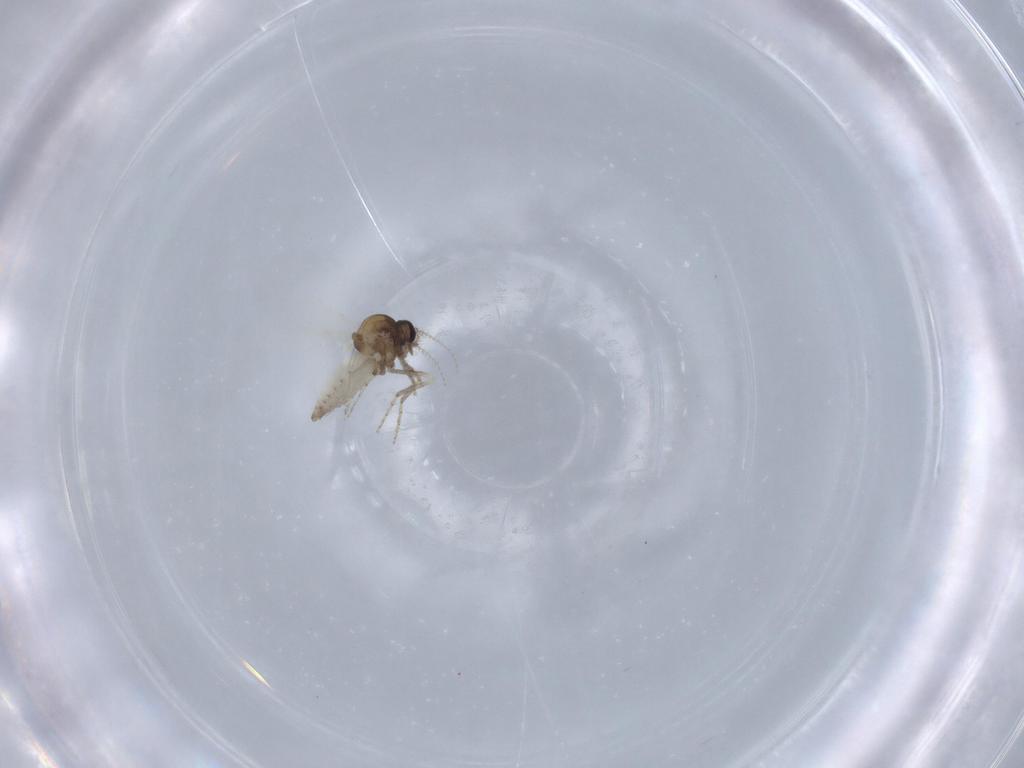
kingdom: Animalia
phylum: Arthropoda
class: Insecta
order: Diptera
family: Ceratopogonidae
